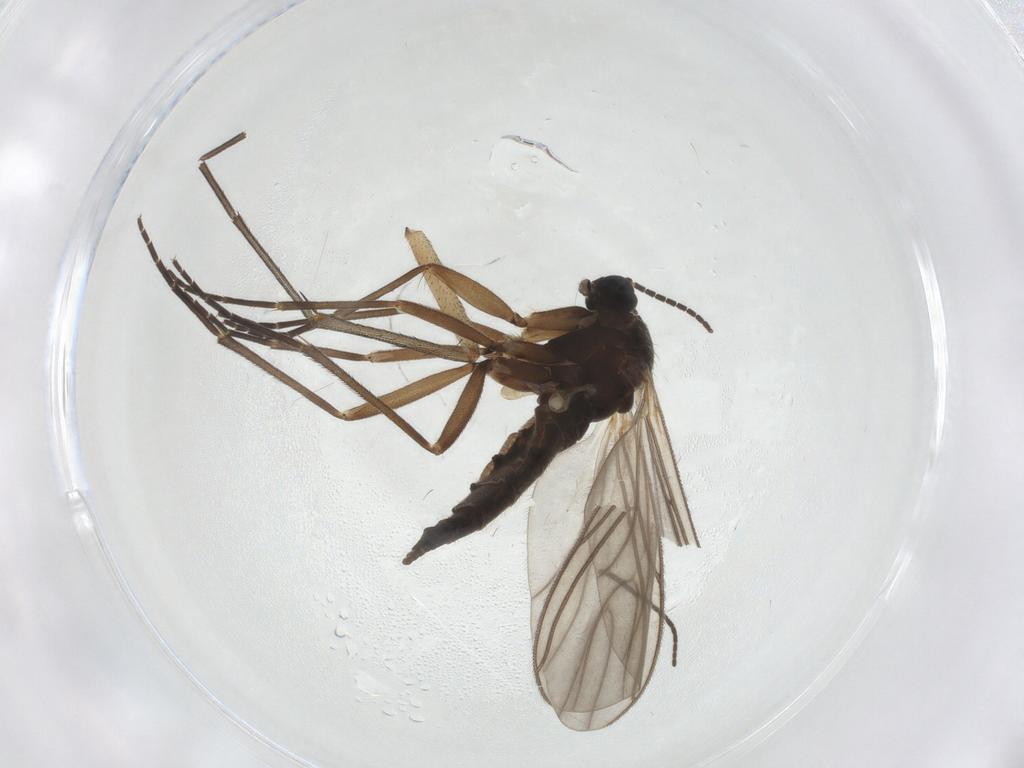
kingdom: Animalia
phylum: Arthropoda
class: Insecta
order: Diptera
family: Sciaridae
